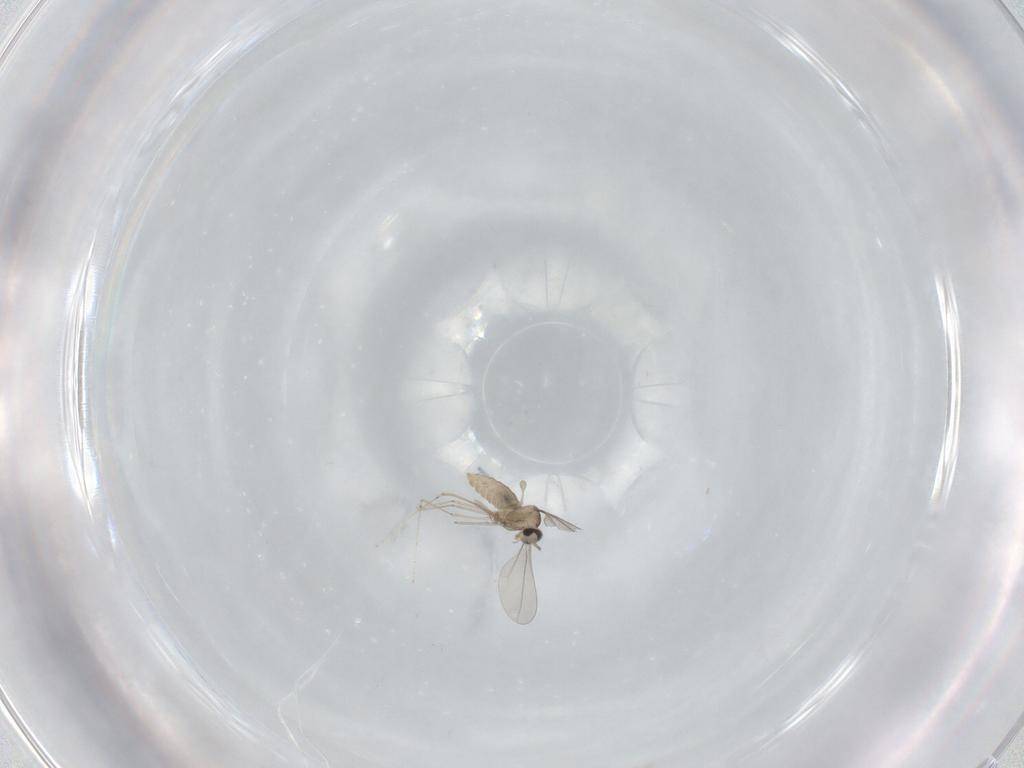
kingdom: Animalia
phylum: Arthropoda
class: Insecta
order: Diptera
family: Cecidomyiidae
